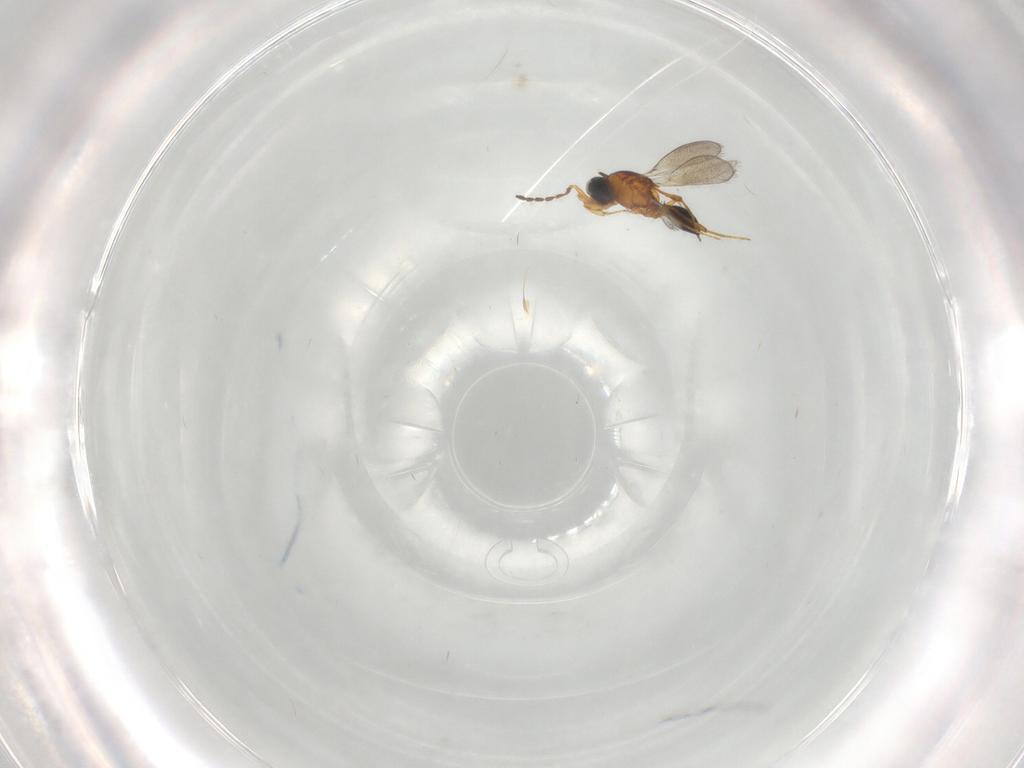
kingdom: Animalia
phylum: Arthropoda
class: Insecta
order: Hymenoptera
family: Platygastridae
